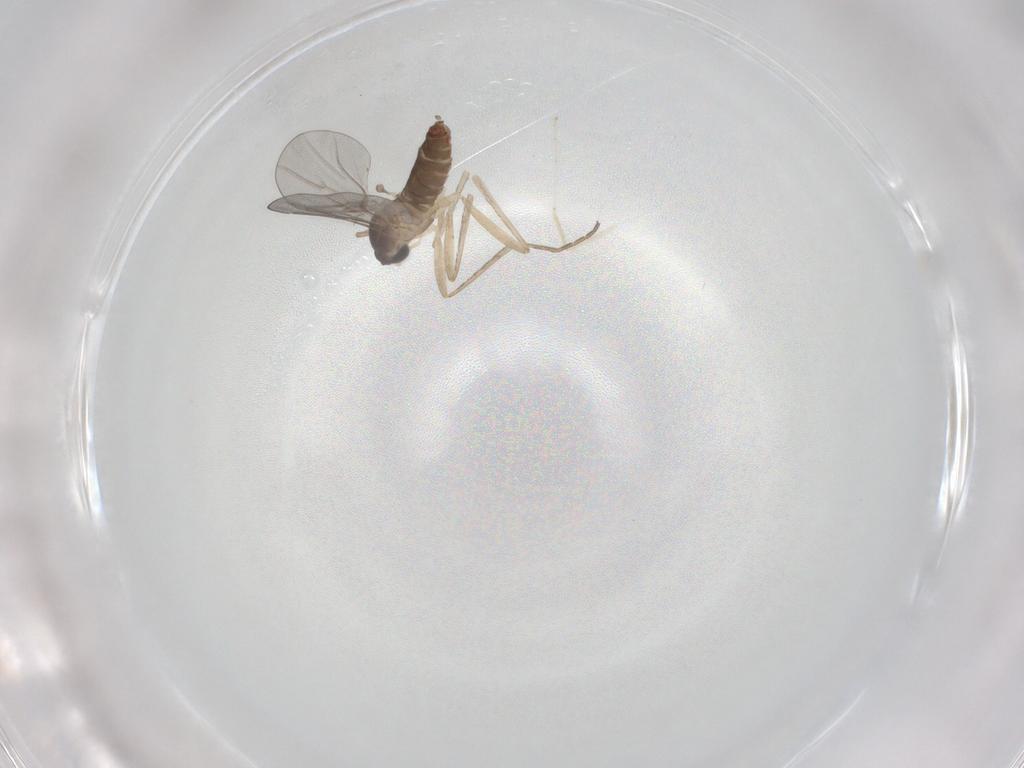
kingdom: Animalia
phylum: Arthropoda
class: Insecta
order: Diptera
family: Cecidomyiidae
